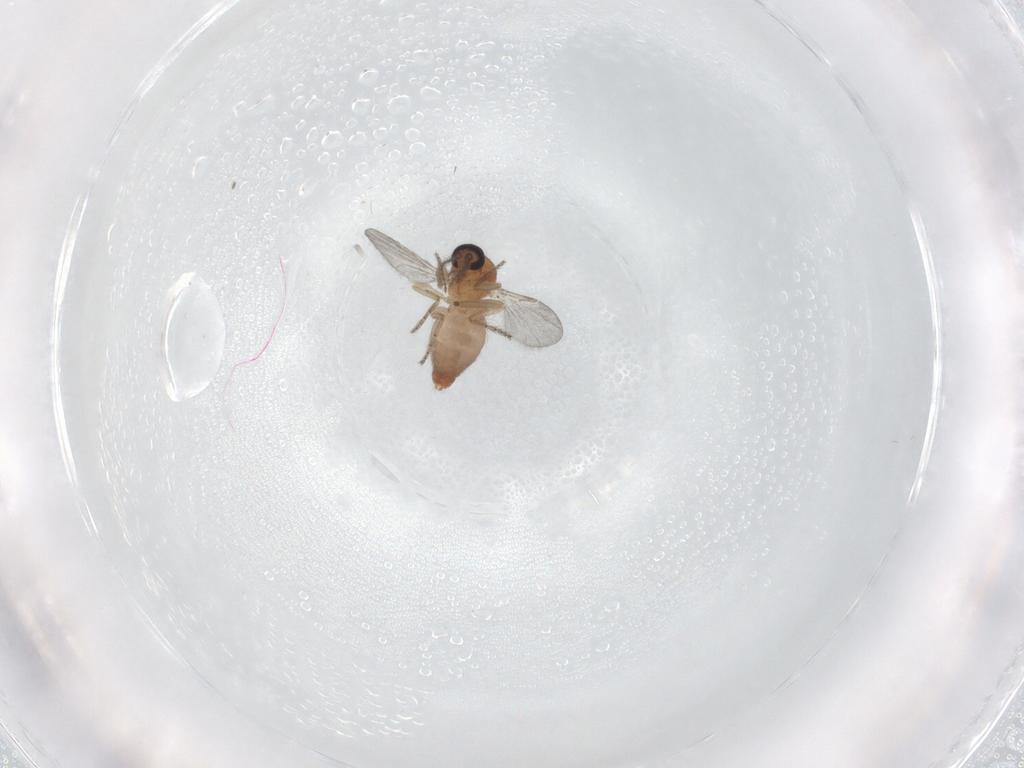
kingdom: Animalia
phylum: Arthropoda
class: Insecta
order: Diptera
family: Ceratopogonidae
